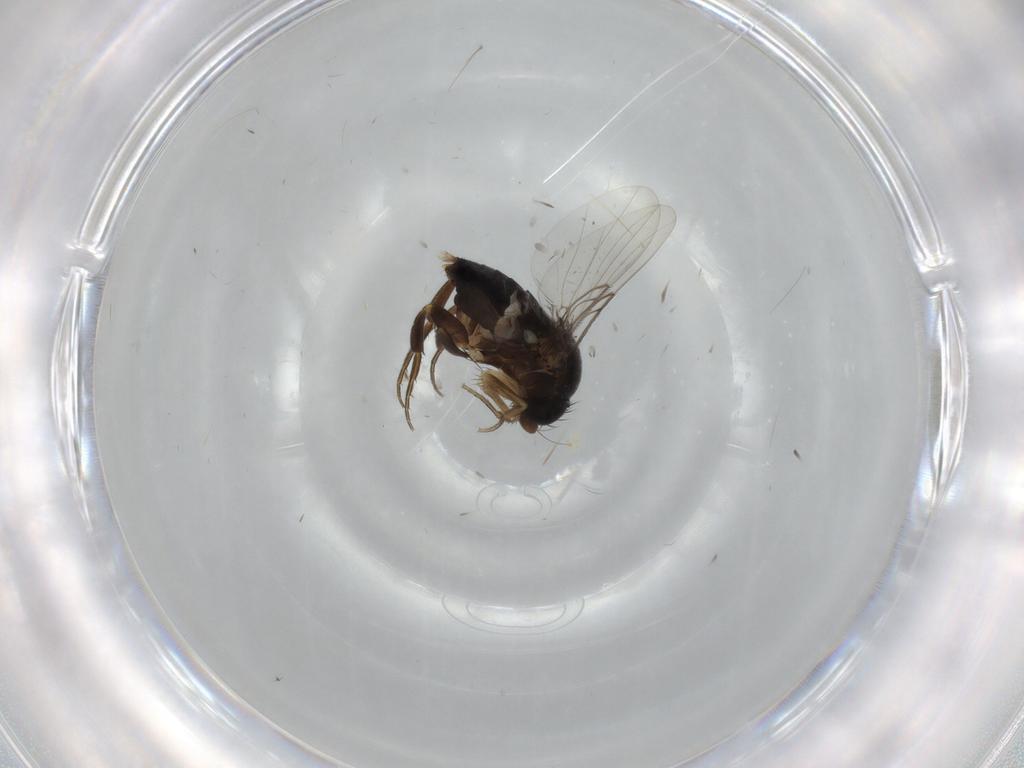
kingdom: Animalia
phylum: Arthropoda
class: Insecta
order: Diptera
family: Phoridae
